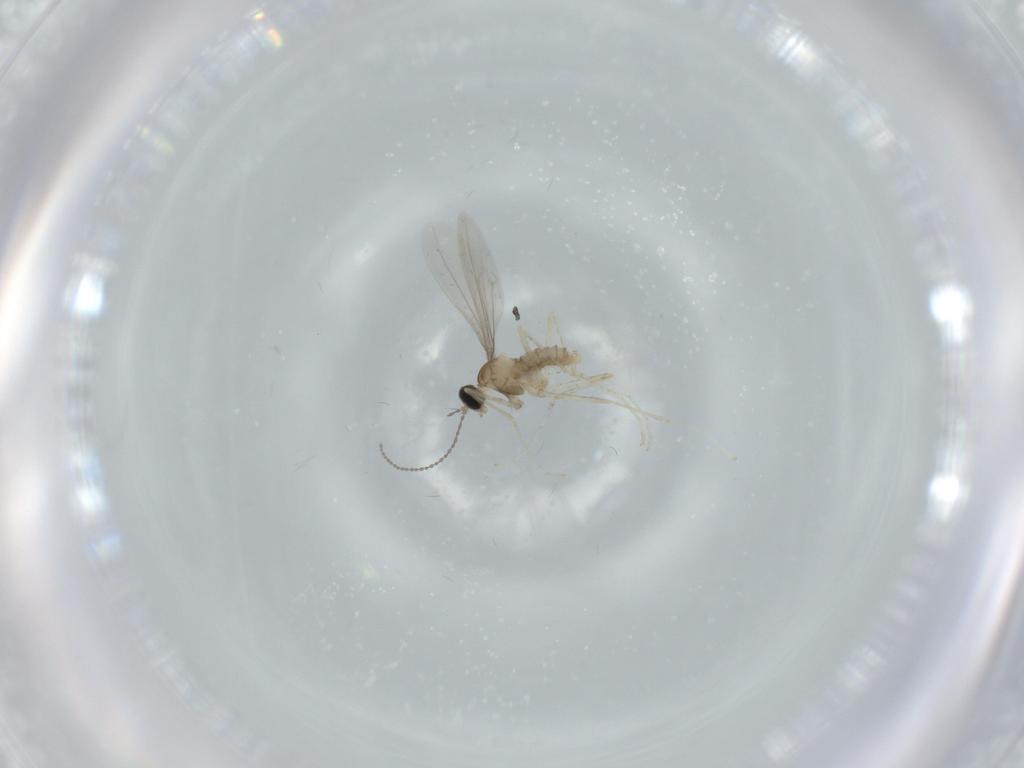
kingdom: Animalia
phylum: Arthropoda
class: Insecta
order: Diptera
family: Cecidomyiidae
